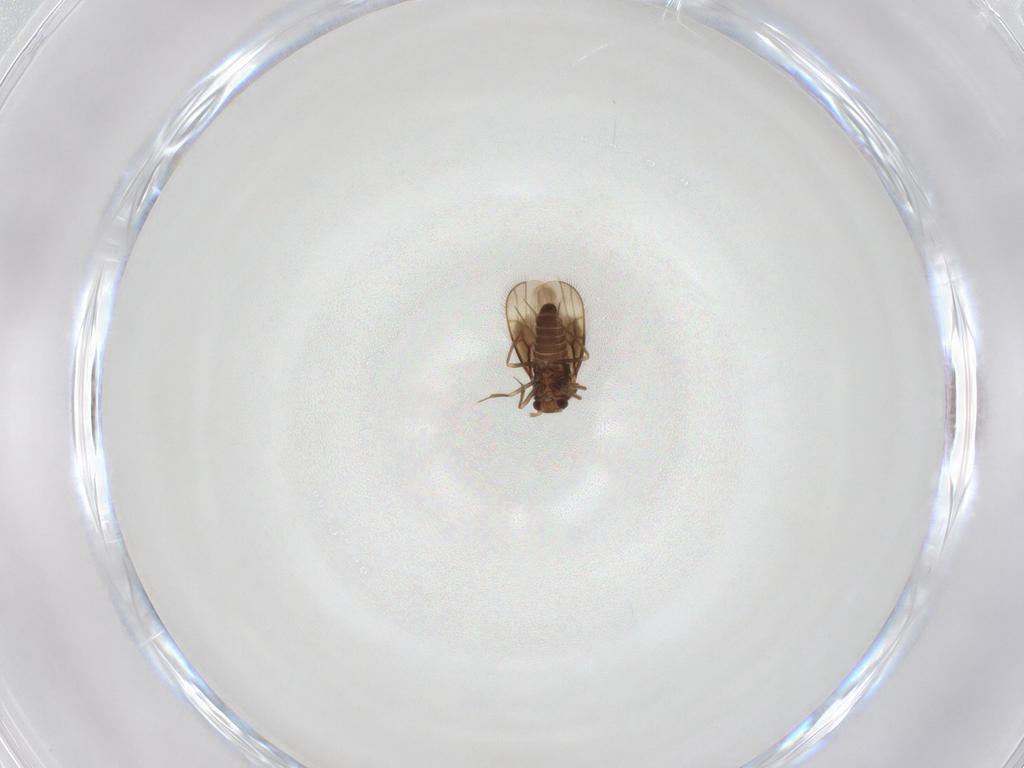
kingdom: Animalia
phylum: Arthropoda
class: Insecta
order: Hemiptera
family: Schizopteridae
